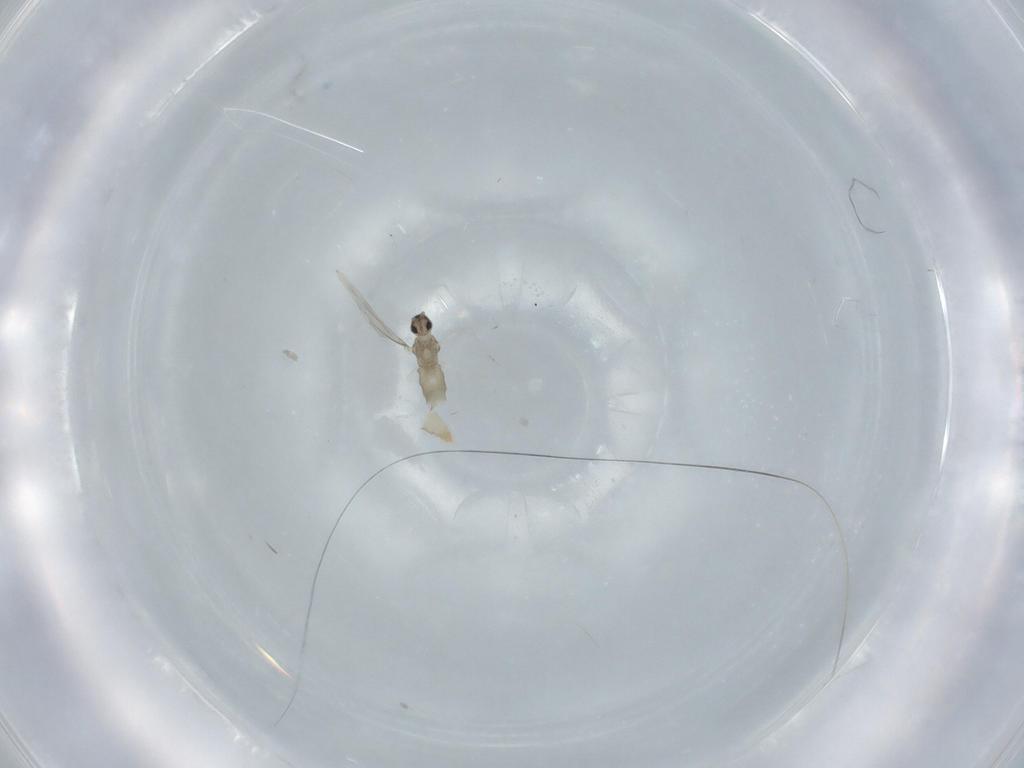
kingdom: Animalia
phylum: Arthropoda
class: Insecta
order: Diptera
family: Cecidomyiidae
